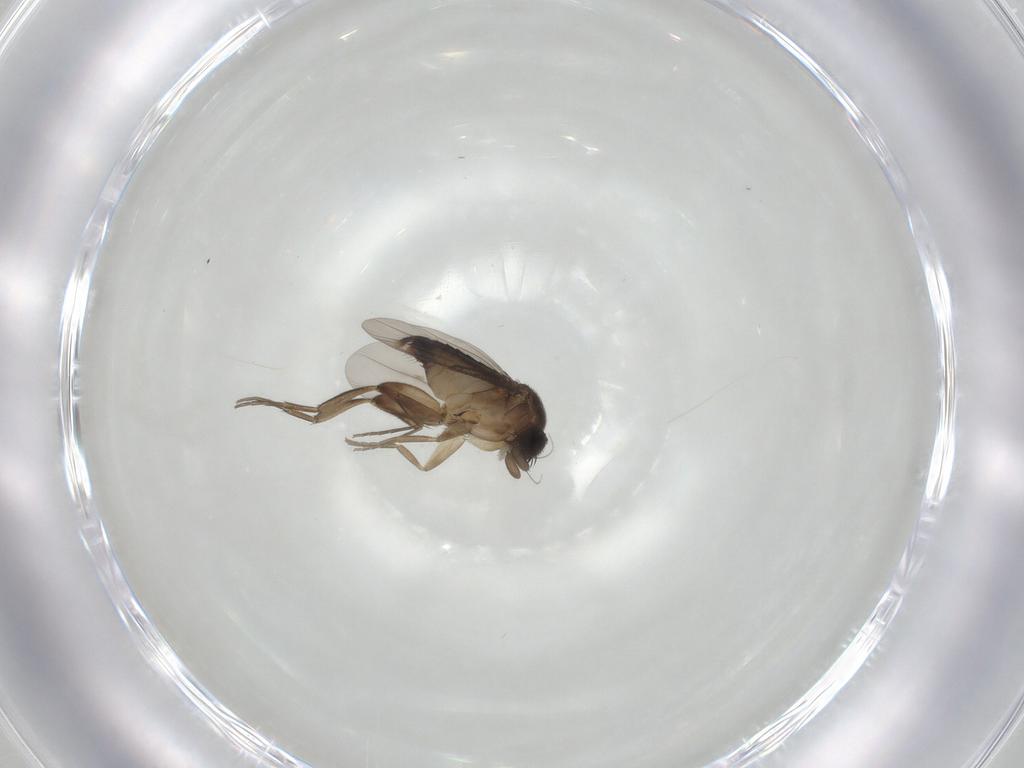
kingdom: Animalia
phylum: Arthropoda
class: Insecta
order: Diptera
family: Phoridae
